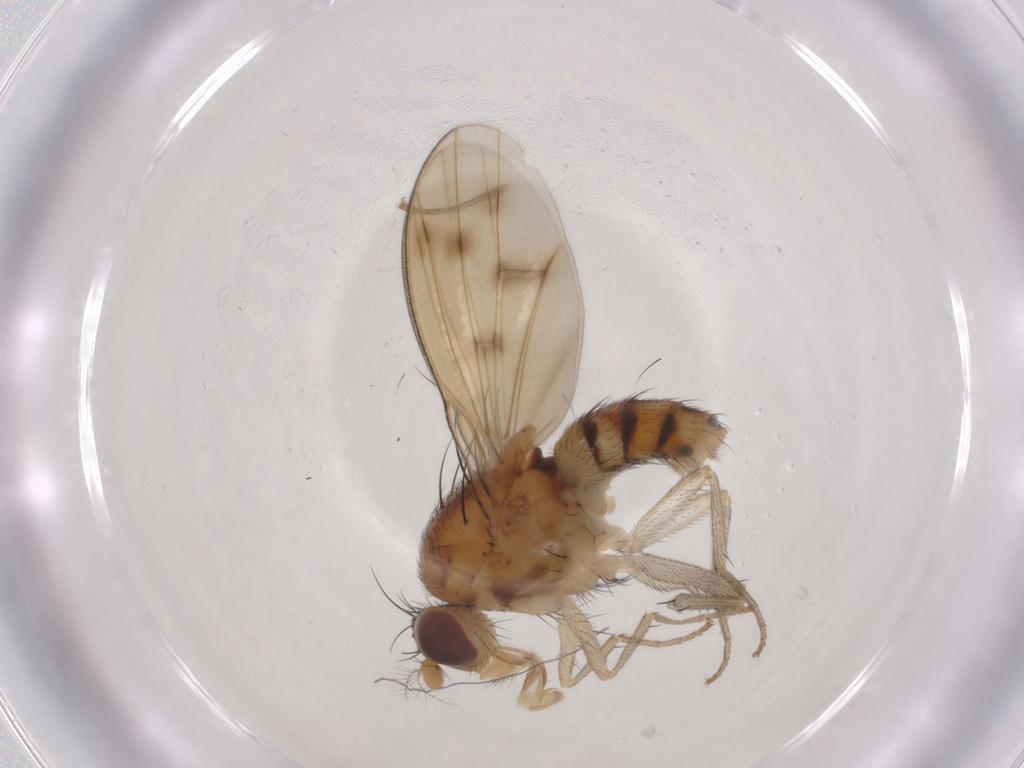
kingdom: Animalia
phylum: Arthropoda
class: Insecta
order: Diptera
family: Lauxaniidae
